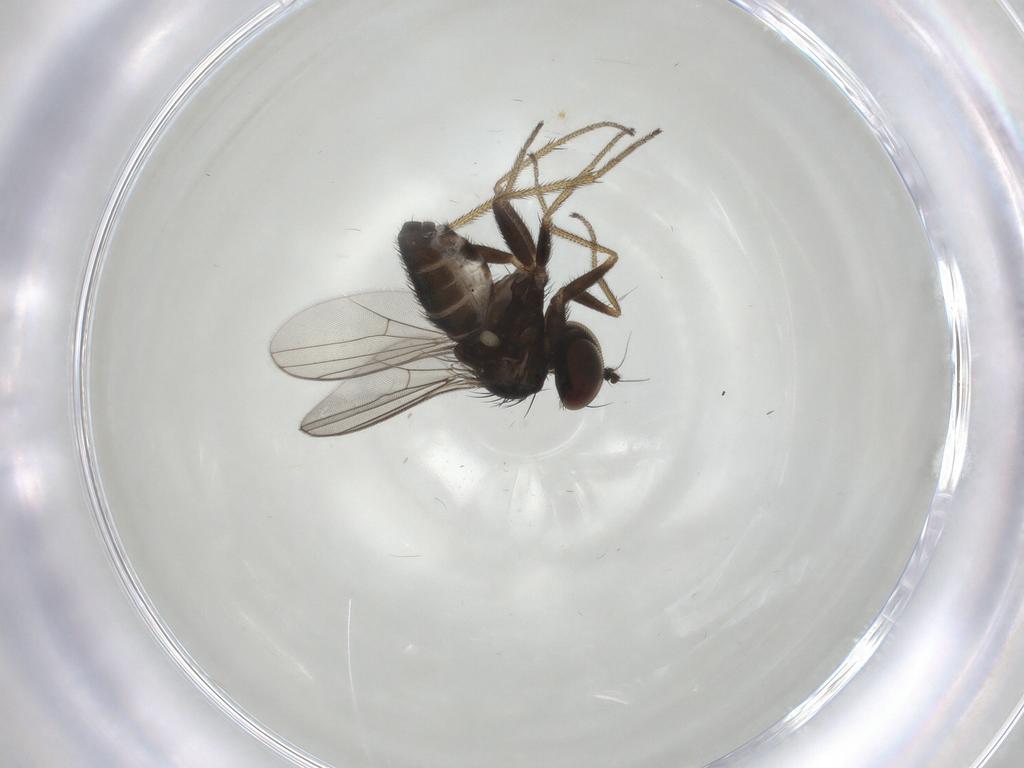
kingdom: Animalia
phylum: Arthropoda
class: Insecta
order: Diptera
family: Dolichopodidae
